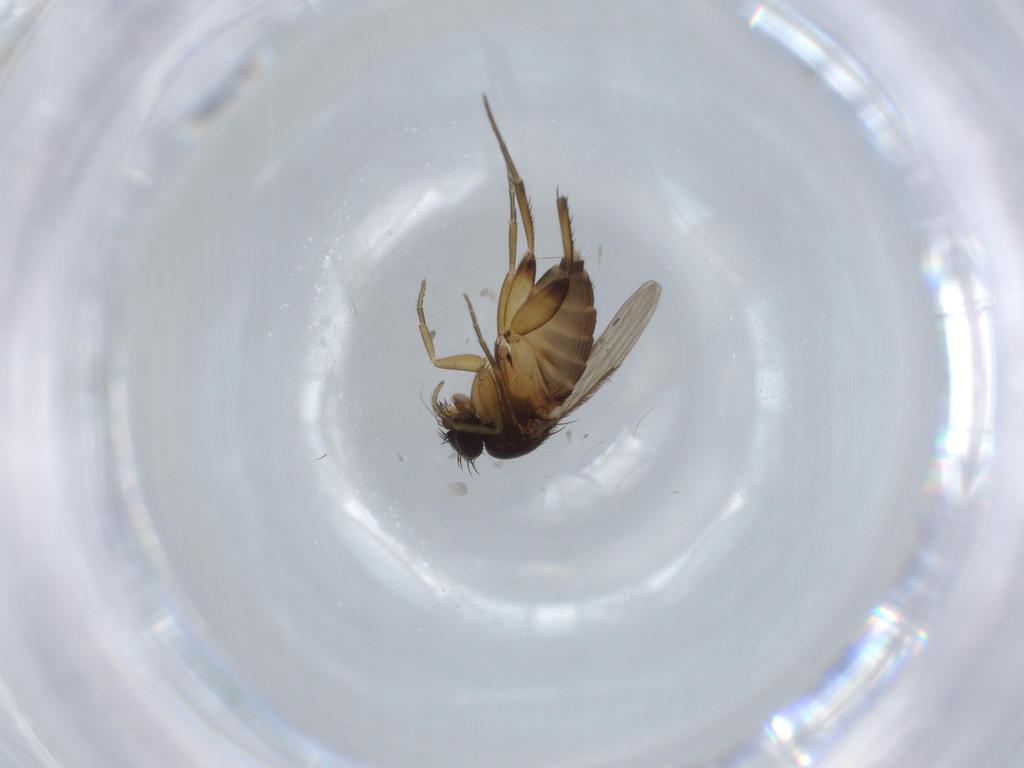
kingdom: Animalia
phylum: Arthropoda
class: Insecta
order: Diptera
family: Phoridae
